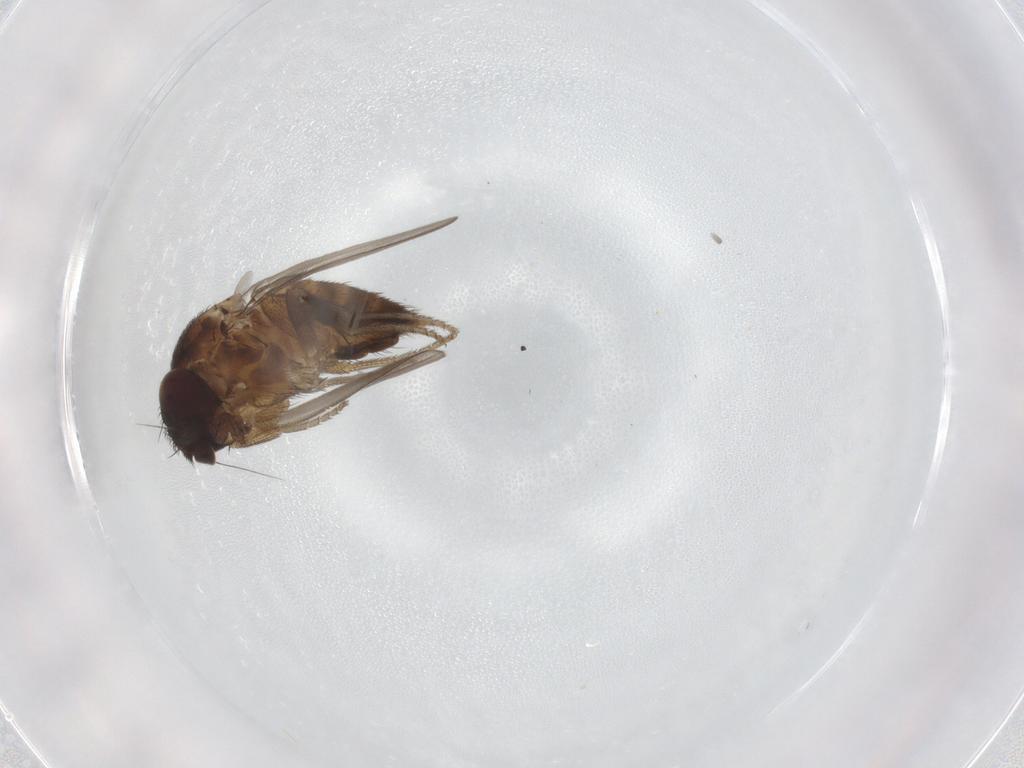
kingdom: Animalia
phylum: Arthropoda
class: Insecta
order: Diptera
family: Milichiidae
